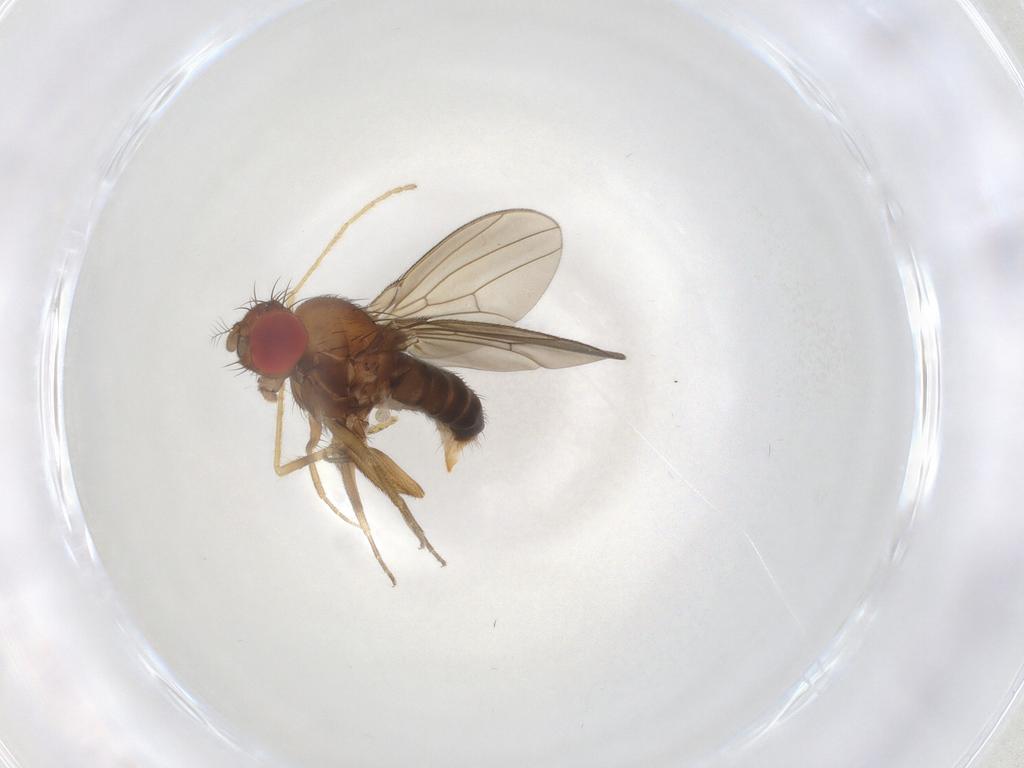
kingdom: Animalia
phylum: Arthropoda
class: Insecta
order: Diptera
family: Drosophilidae
